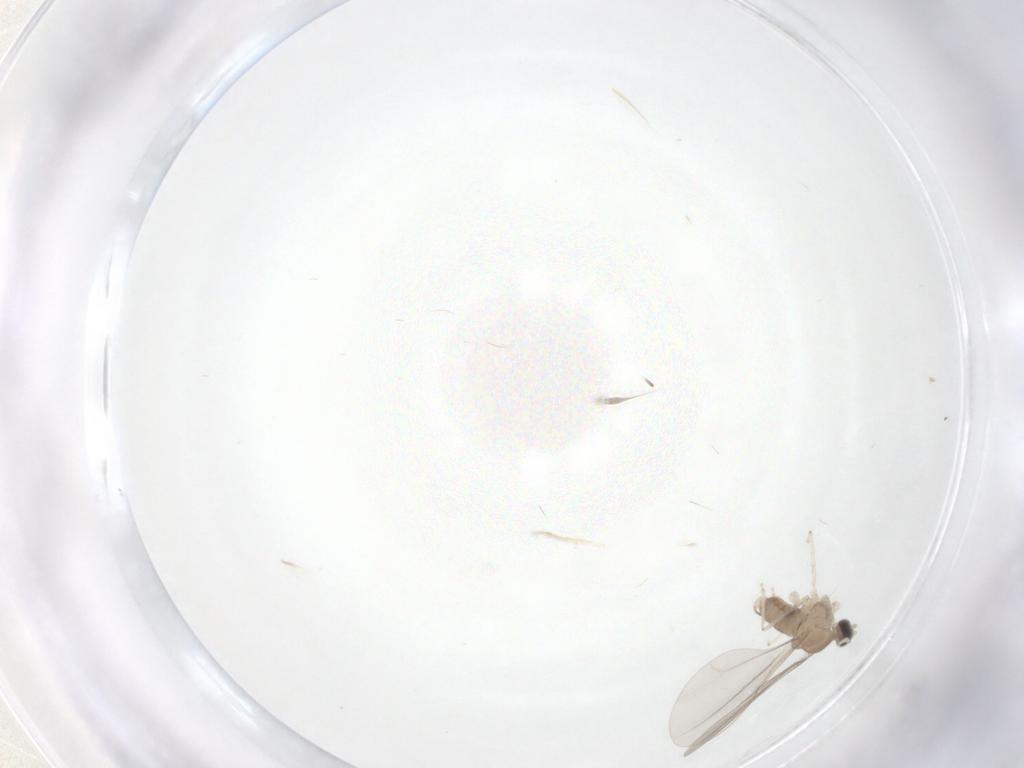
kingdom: Animalia
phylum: Arthropoda
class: Insecta
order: Diptera
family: Cecidomyiidae
